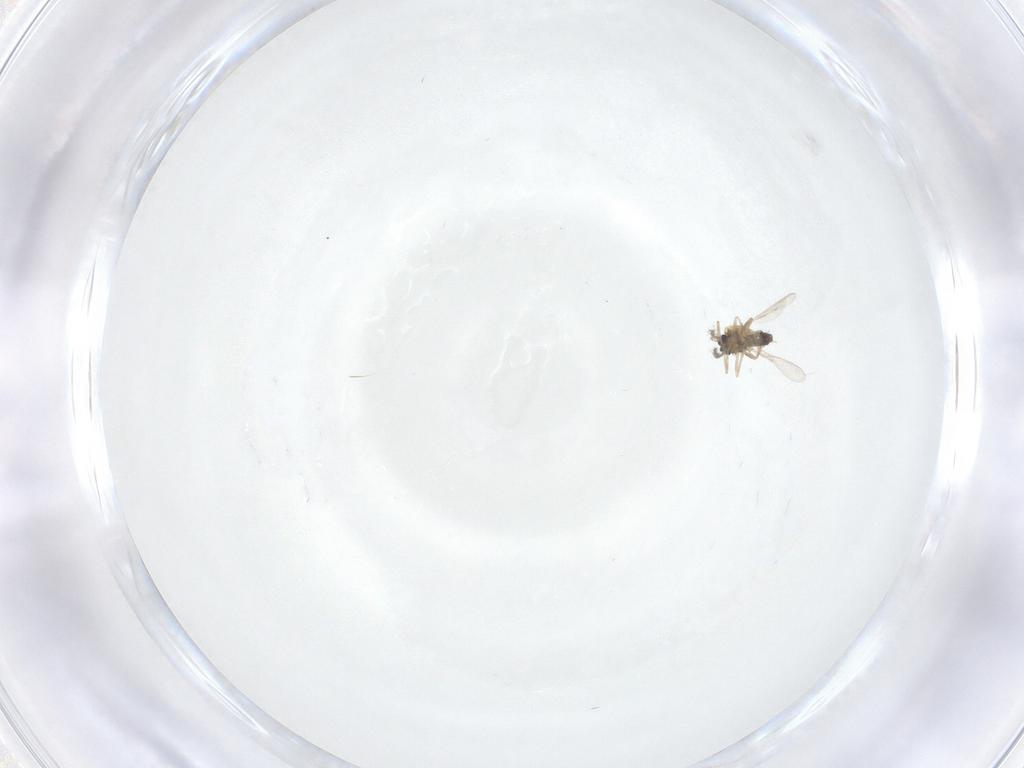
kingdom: Animalia
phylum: Arthropoda
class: Insecta
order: Diptera
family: Ceratopogonidae
